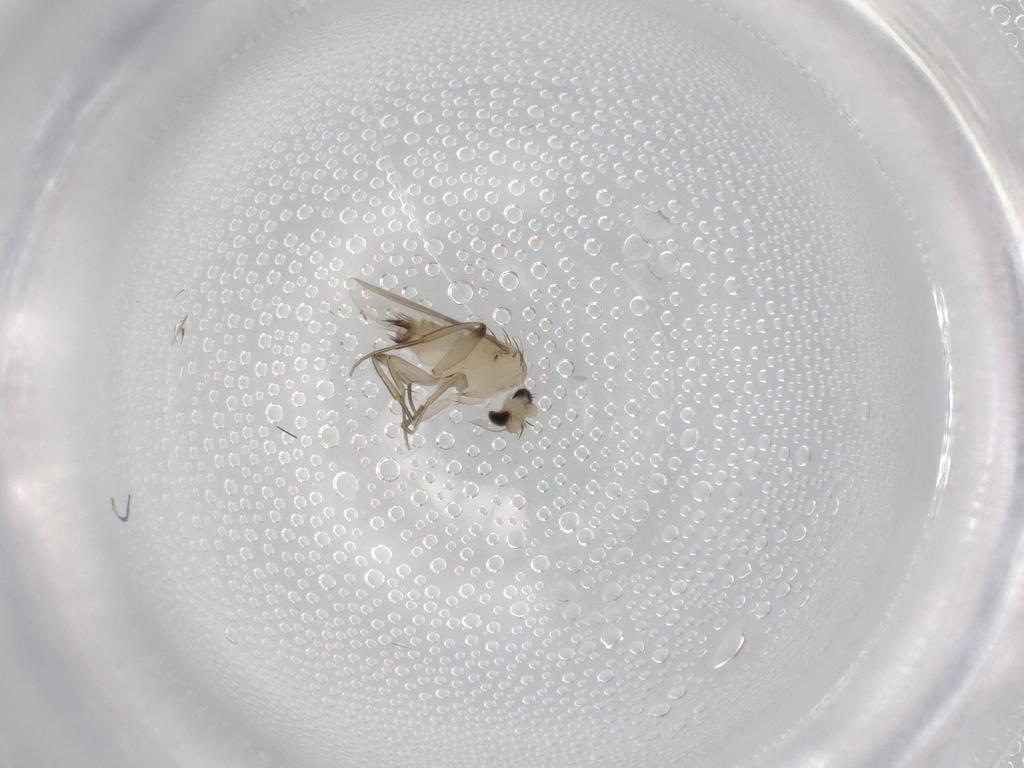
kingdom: Animalia
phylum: Arthropoda
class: Insecta
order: Diptera
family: Phoridae
